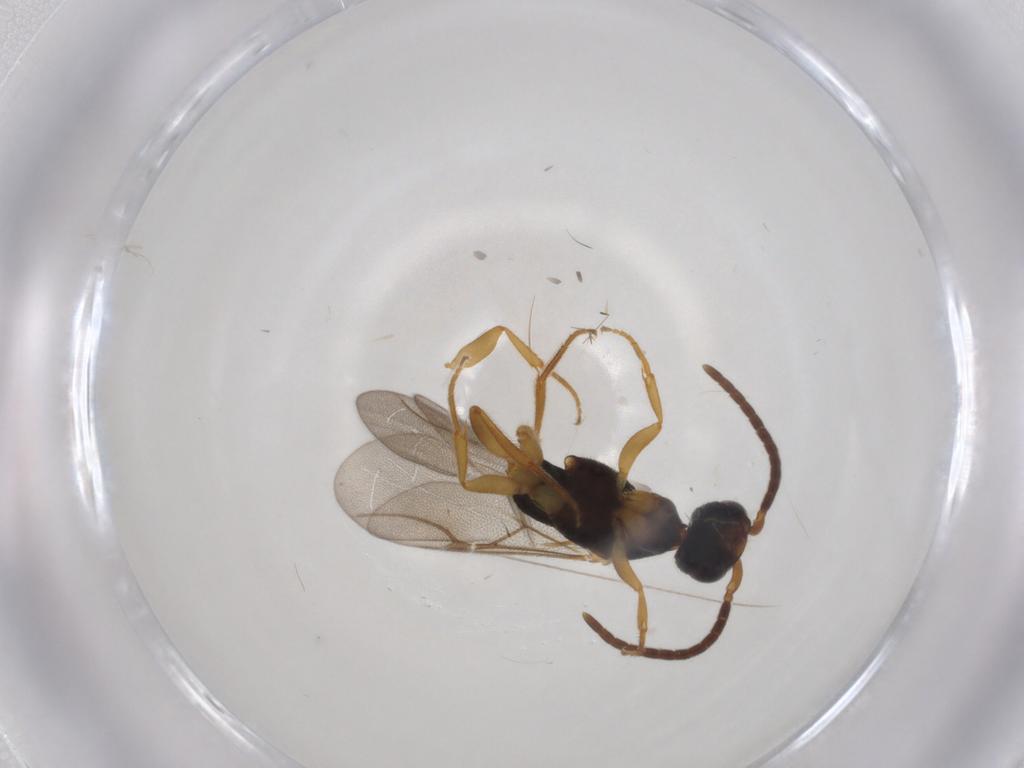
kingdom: Animalia
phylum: Arthropoda
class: Insecta
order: Hymenoptera
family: Bethylidae
